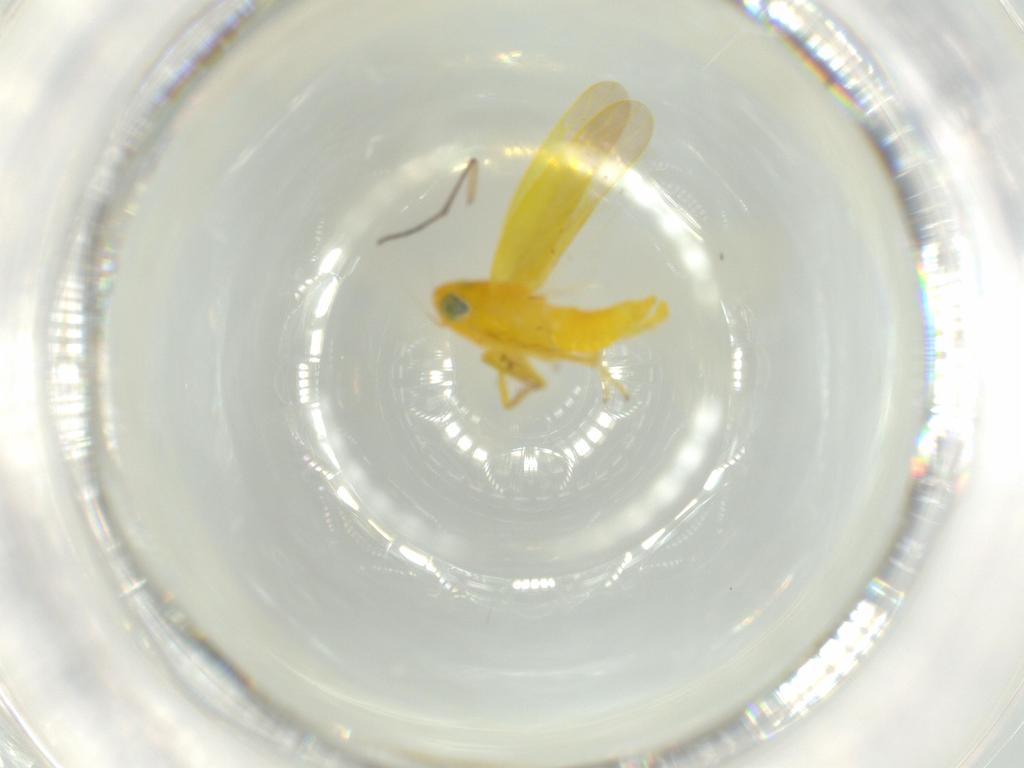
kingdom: Animalia
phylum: Arthropoda
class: Insecta
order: Hemiptera
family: Cicadellidae
